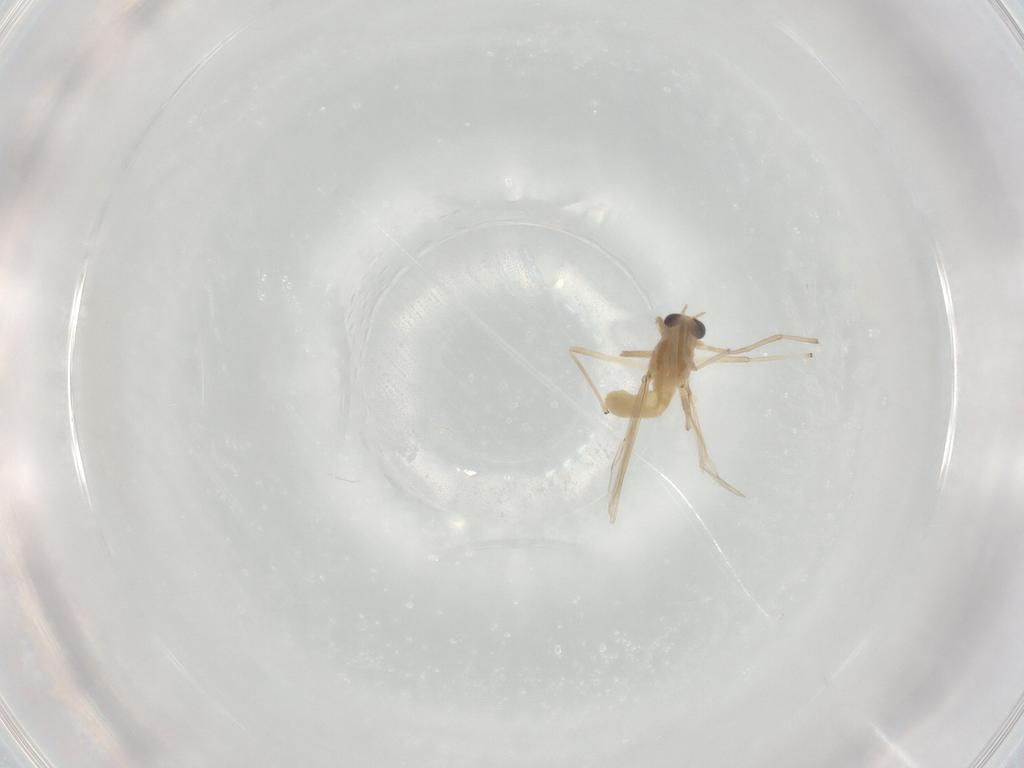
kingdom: Animalia
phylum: Arthropoda
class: Insecta
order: Diptera
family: Chironomidae
